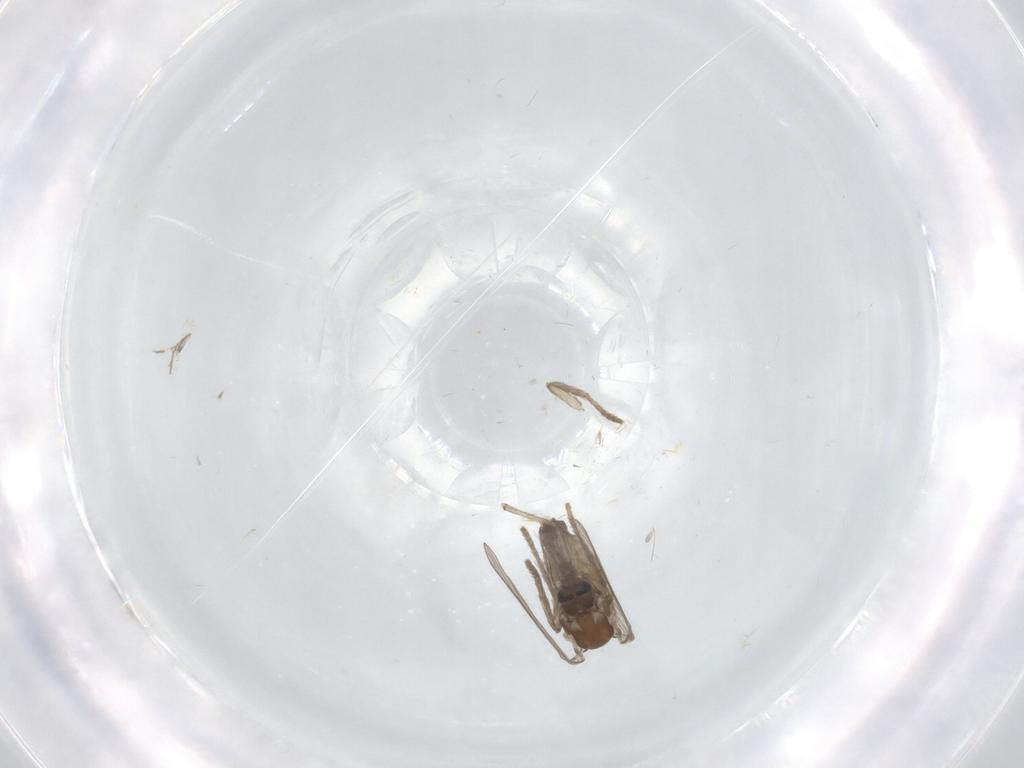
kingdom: Animalia
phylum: Arthropoda
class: Insecta
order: Diptera
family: Psychodidae
